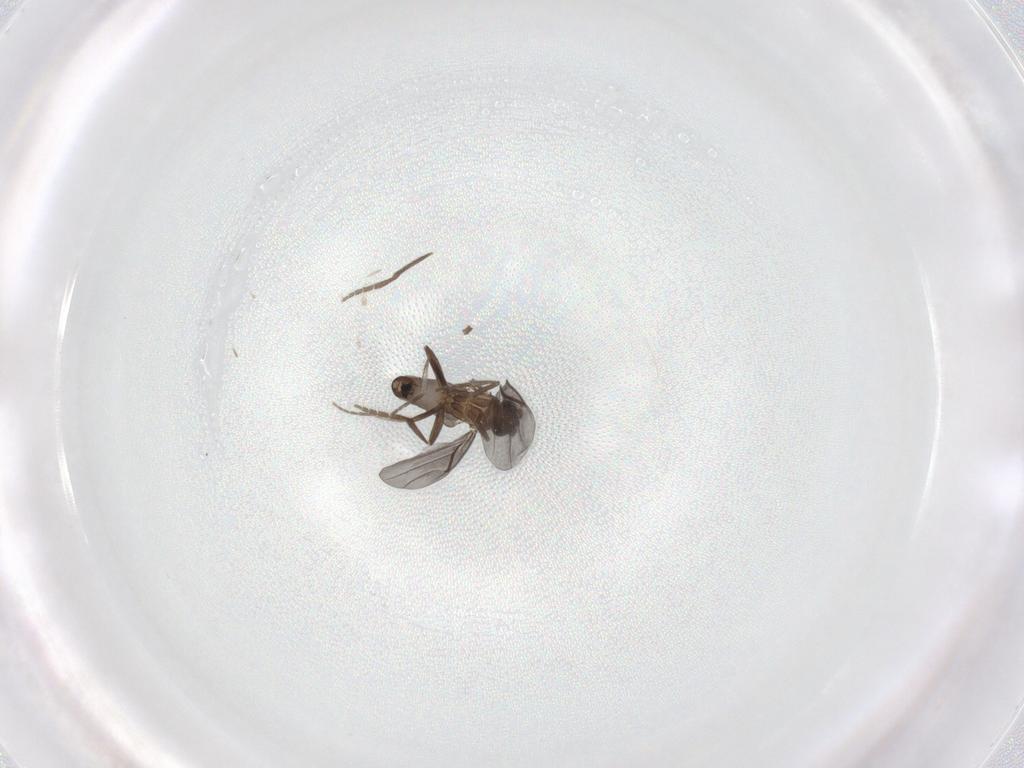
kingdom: Animalia
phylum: Arthropoda
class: Insecta
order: Diptera
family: Phoridae
